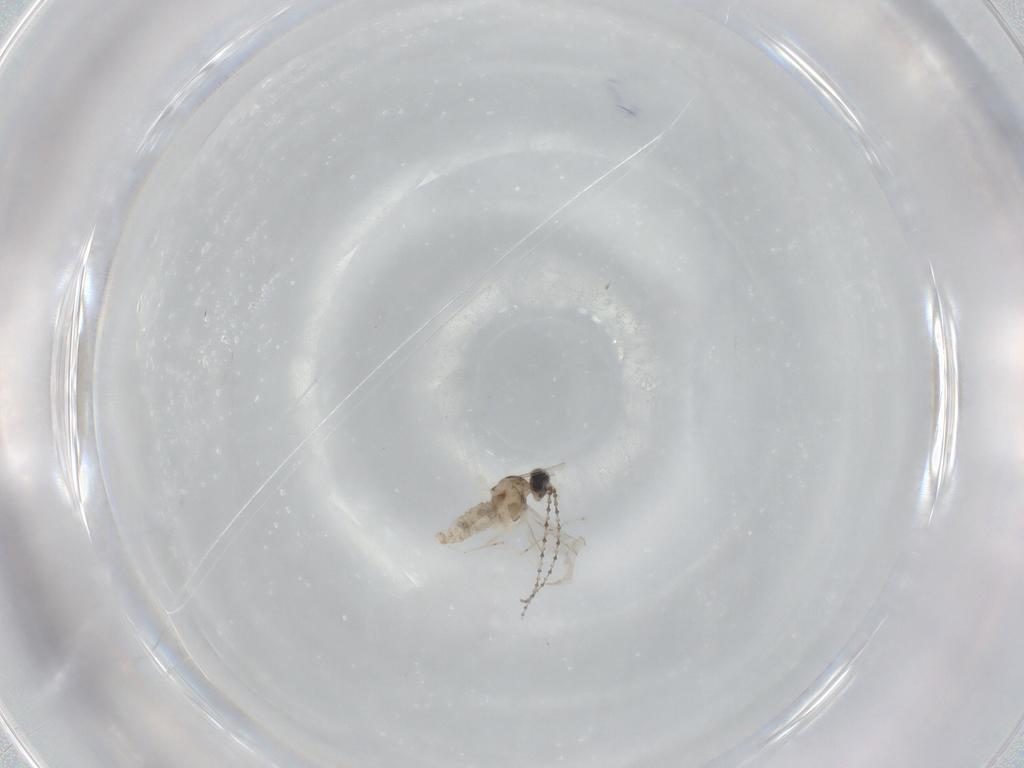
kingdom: Animalia
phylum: Arthropoda
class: Insecta
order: Diptera
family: Cecidomyiidae
